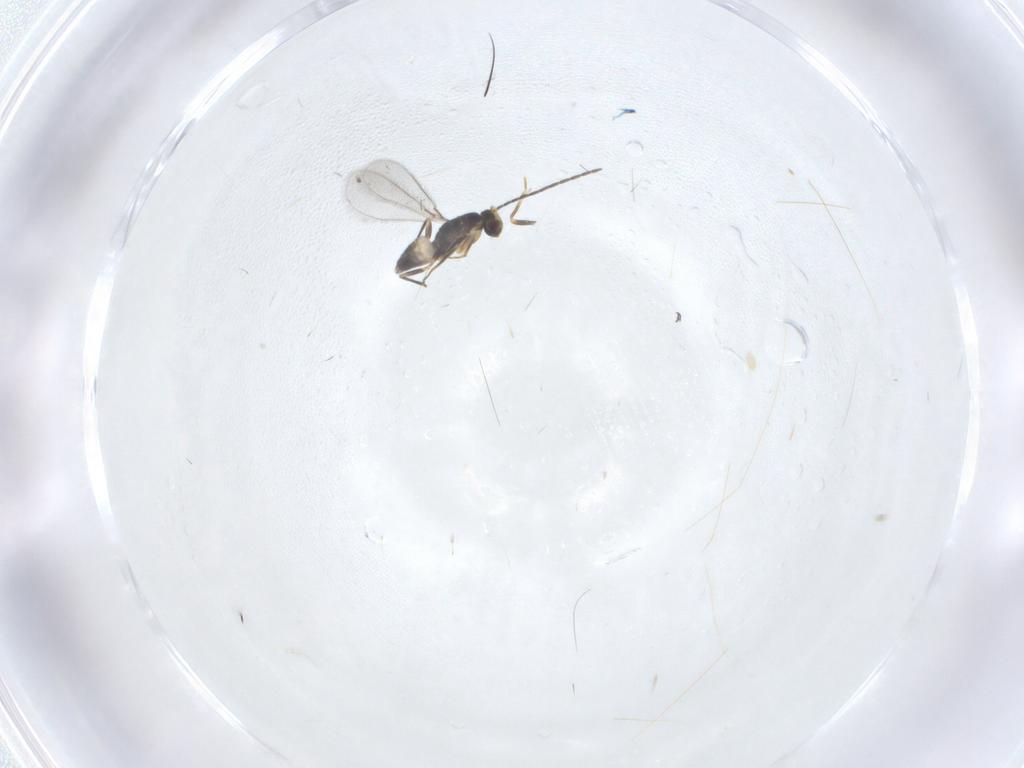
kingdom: Animalia
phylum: Arthropoda
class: Insecta
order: Hymenoptera
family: Mymaridae
